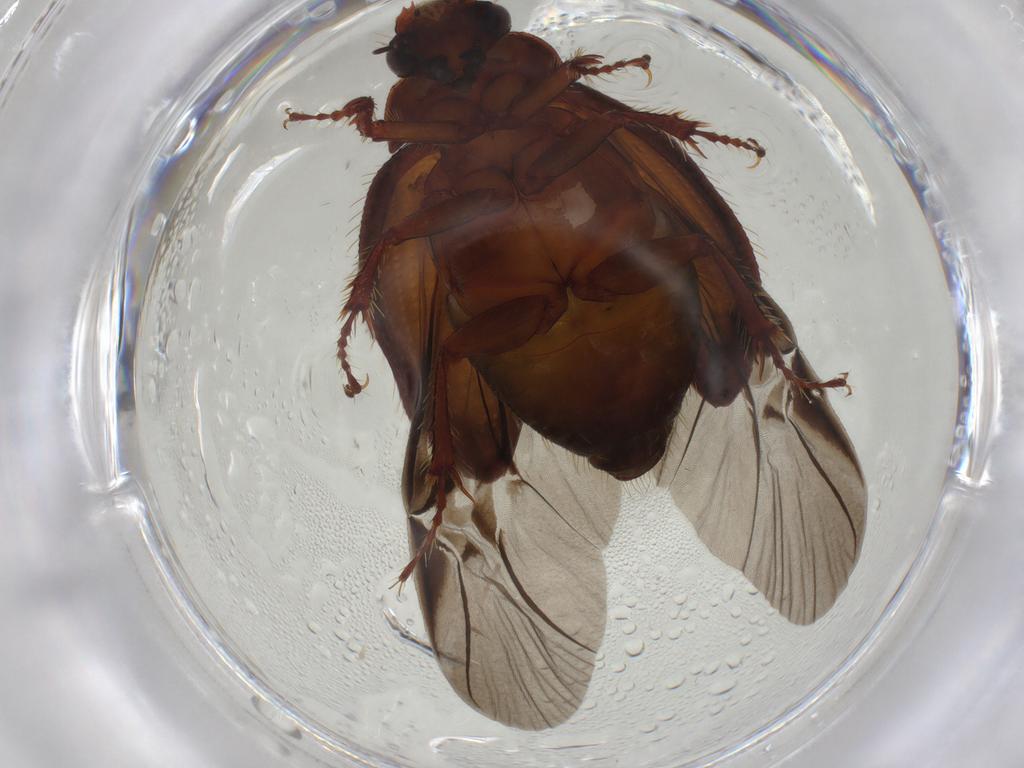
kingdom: Animalia
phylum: Arthropoda
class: Insecta
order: Coleoptera
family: Hybosoridae
